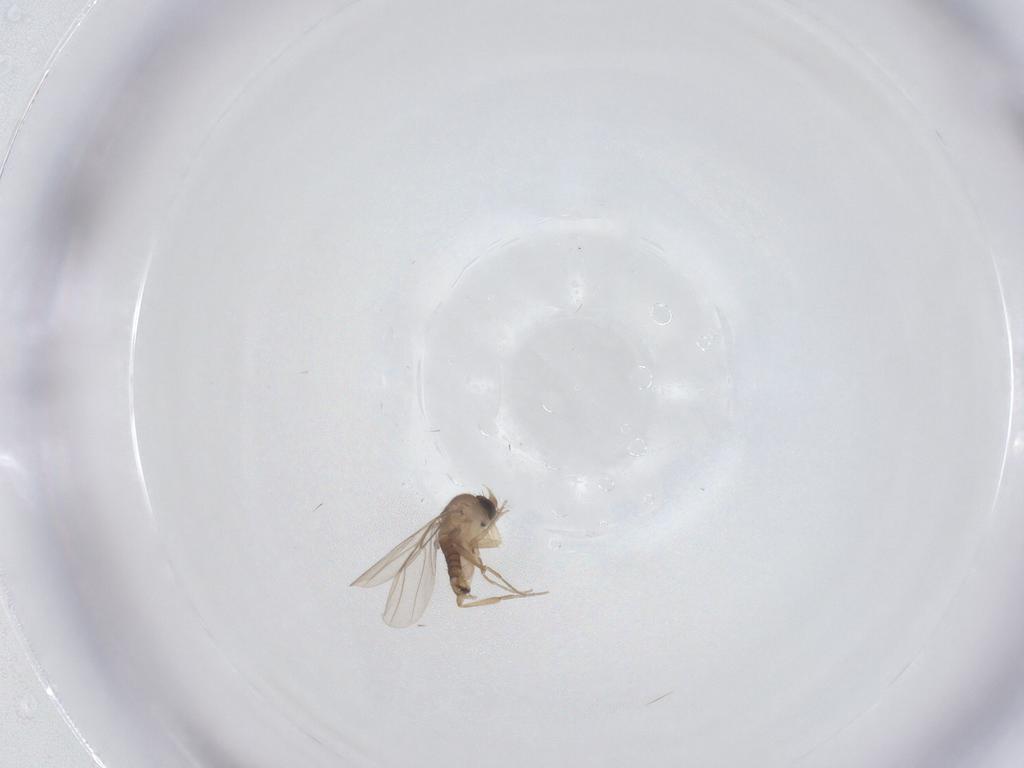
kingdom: Animalia
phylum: Arthropoda
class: Insecta
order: Diptera
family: Phoridae
